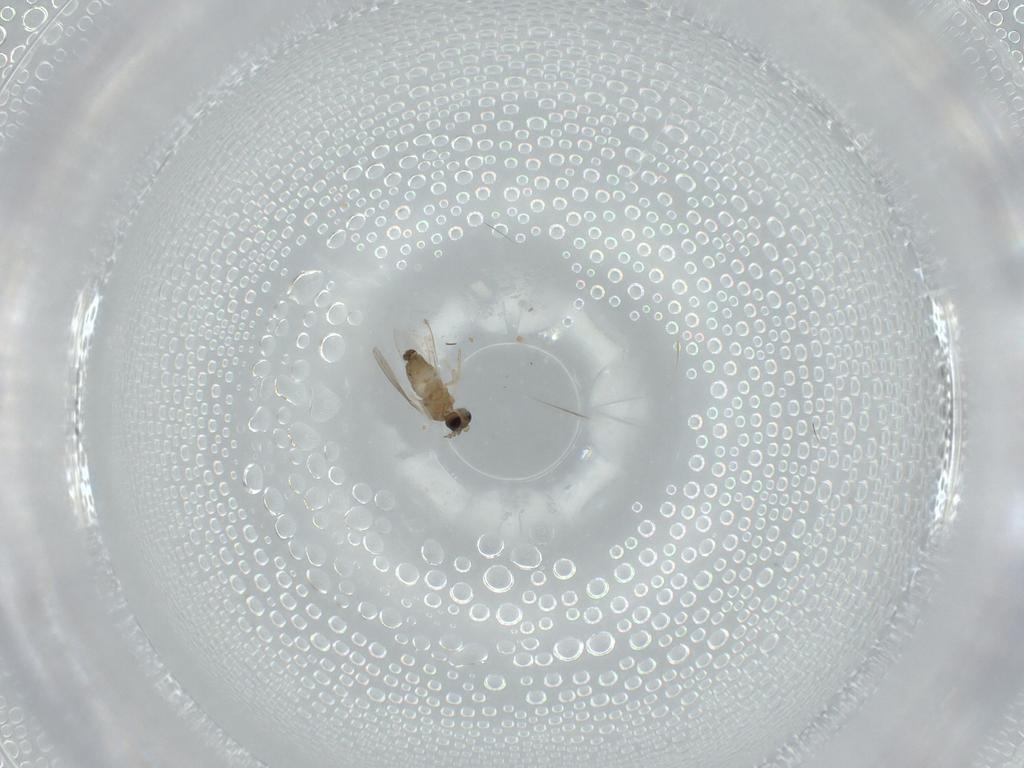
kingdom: Animalia
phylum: Arthropoda
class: Insecta
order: Diptera
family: Cecidomyiidae
